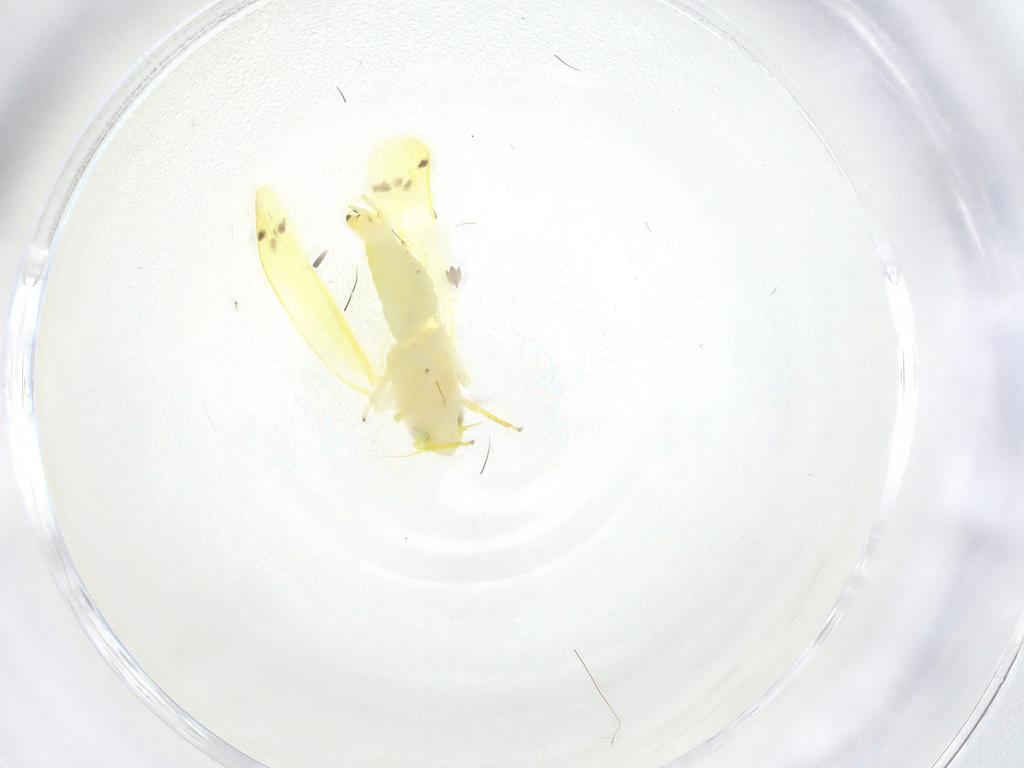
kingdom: Animalia
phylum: Arthropoda
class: Insecta
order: Hemiptera
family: Cicadellidae
